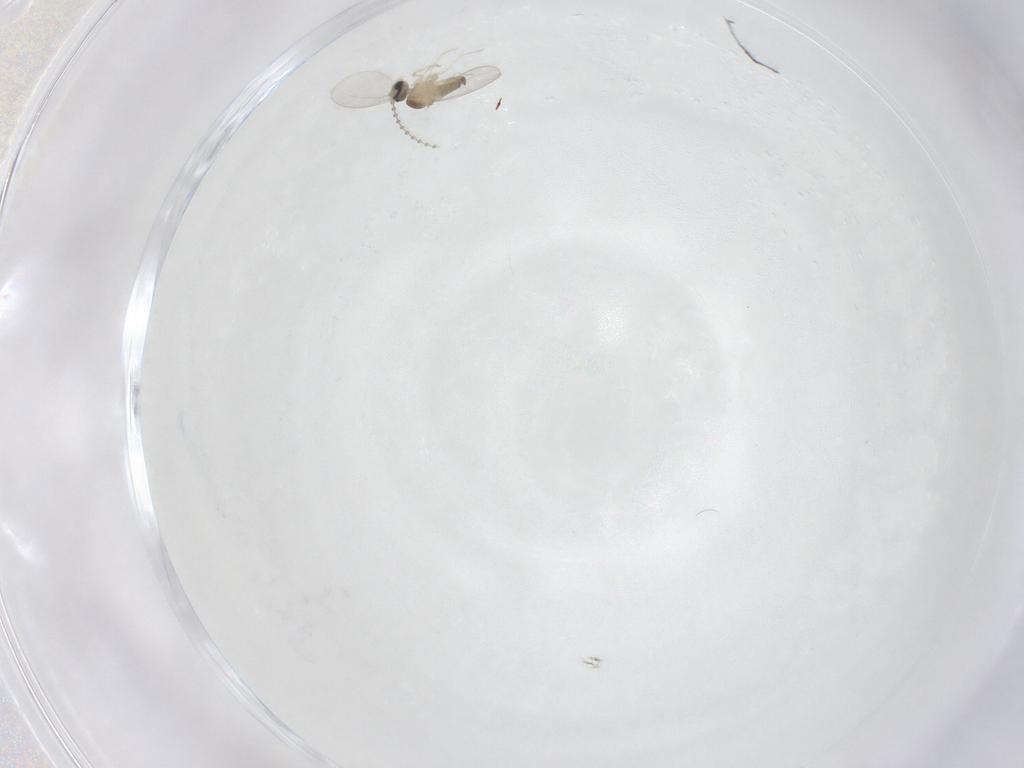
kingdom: Animalia
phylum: Arthropoda
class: Insecta
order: Diptera
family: Cecidomyiidae
